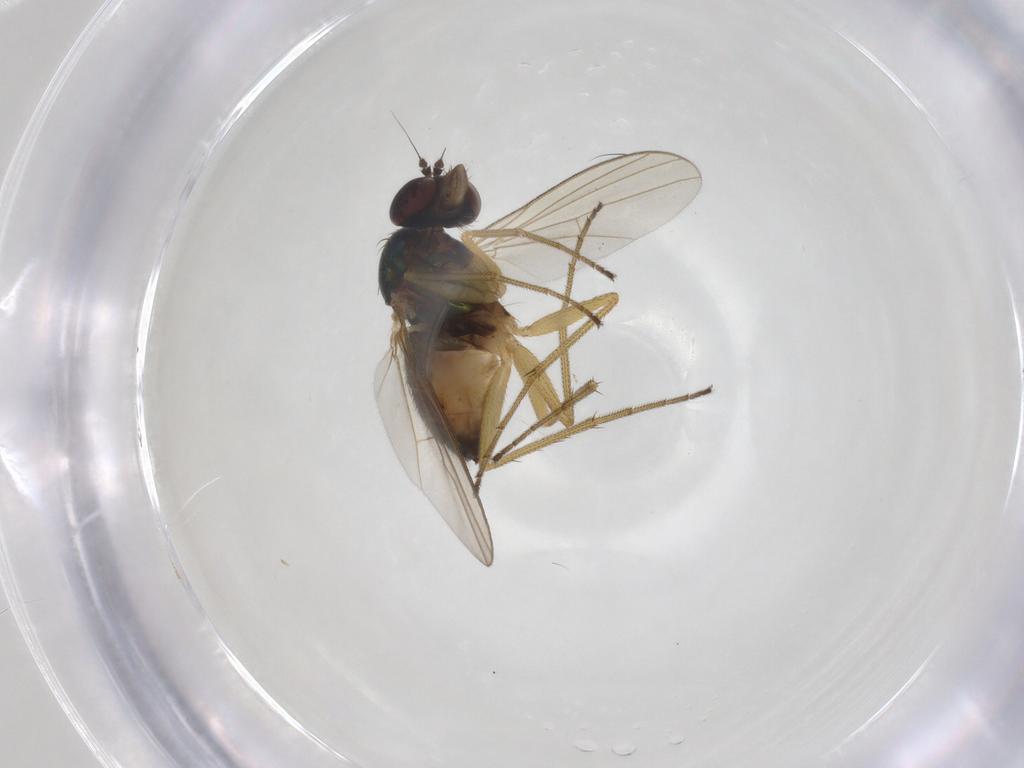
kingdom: Animalia
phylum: Arthropoda
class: Insecta
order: Diptera
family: Dolichopodidae
